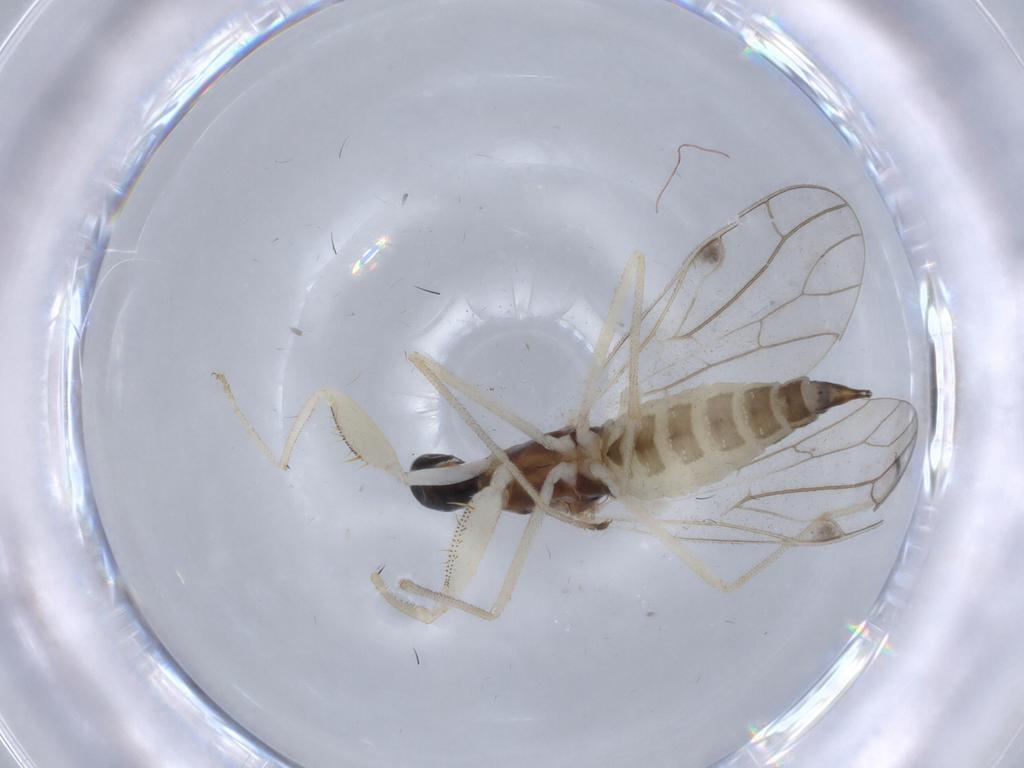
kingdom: Animalia
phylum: Arthropoda
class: Insecta
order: Diptera
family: Empididae
